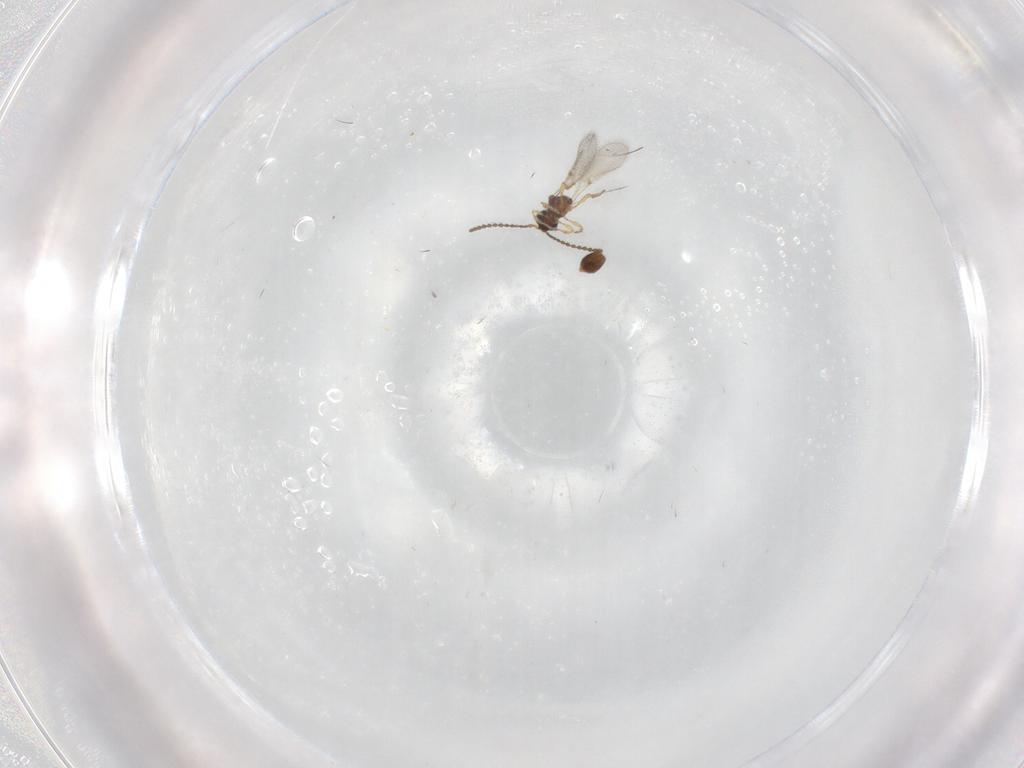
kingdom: Animalia
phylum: Arthropoda
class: Insecta
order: Hymenoptera
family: Diapriidae
